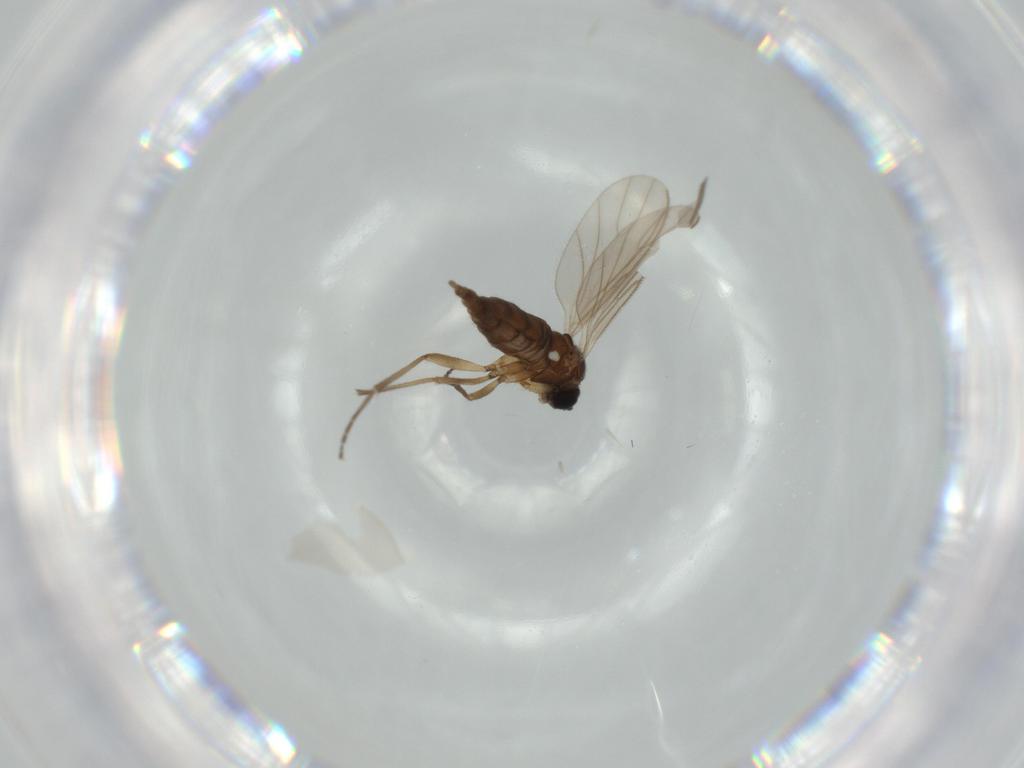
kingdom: Animalia
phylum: Arthropoda
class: Insecta
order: Diptera
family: Sciaridae
